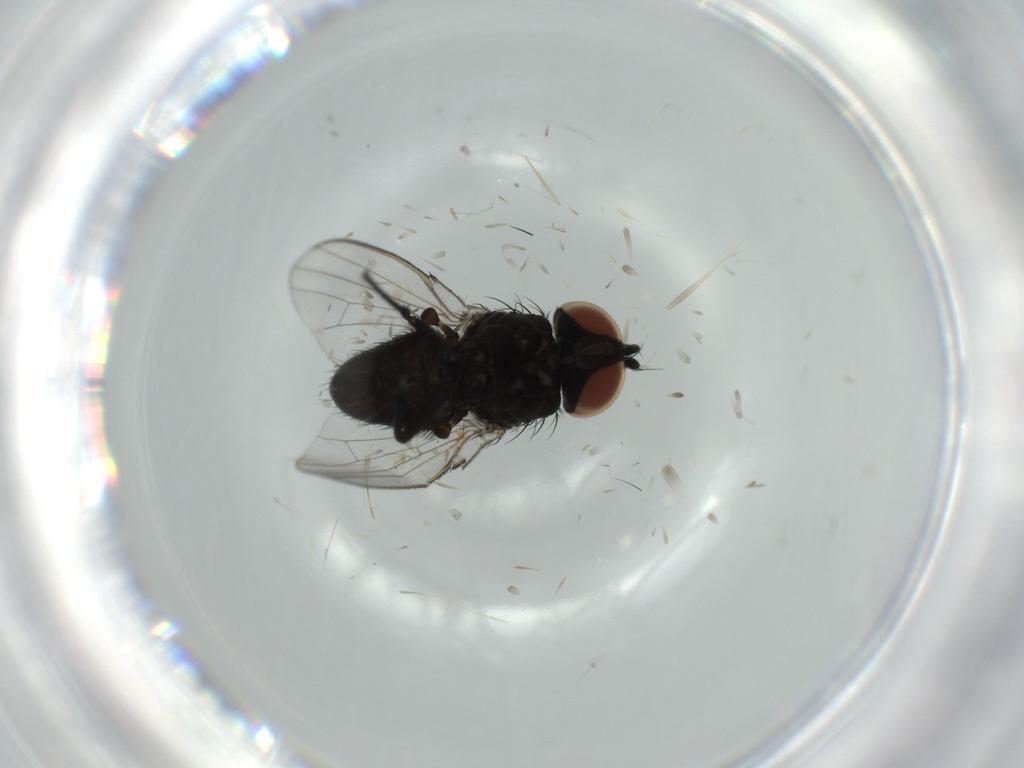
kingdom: Animalia
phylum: Arthropoda
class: Insecta
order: Diptera
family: Milichiidae
